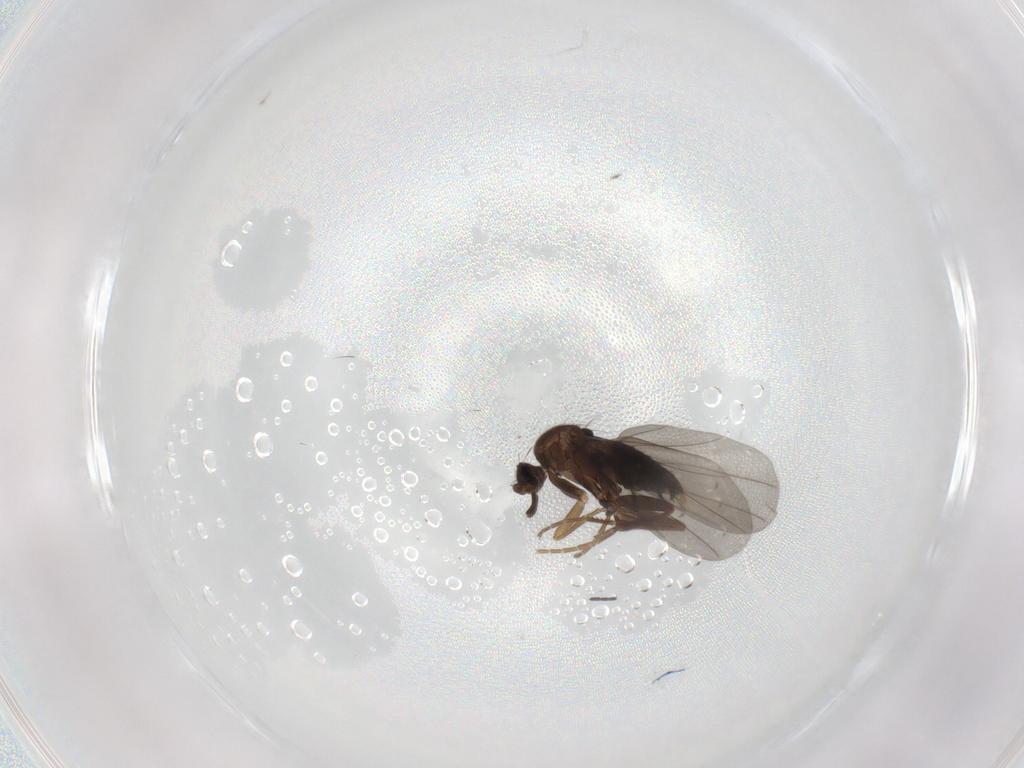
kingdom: Animalia
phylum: Arthropoda
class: Insecta
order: Diptera
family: Phoridae
